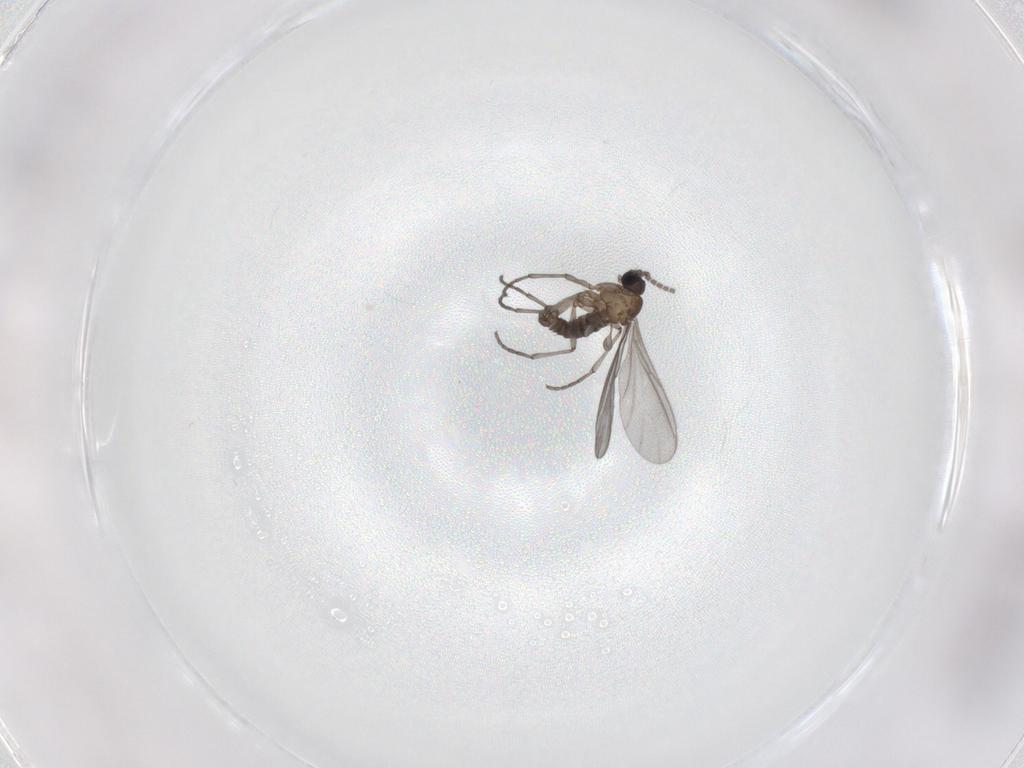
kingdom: Animalia
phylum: Arthropoda
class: Insecta
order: Diptera
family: Sciaridae
